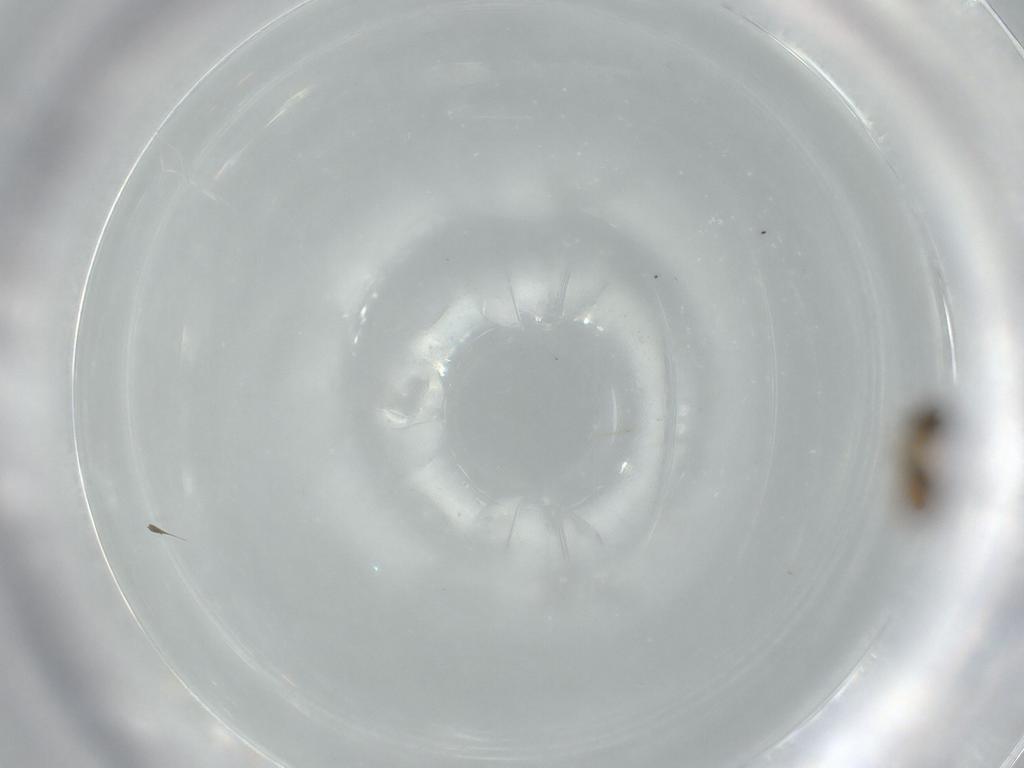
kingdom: Animalia
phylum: Arthropoda
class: Insecta
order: Diptera
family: Psychodidae
